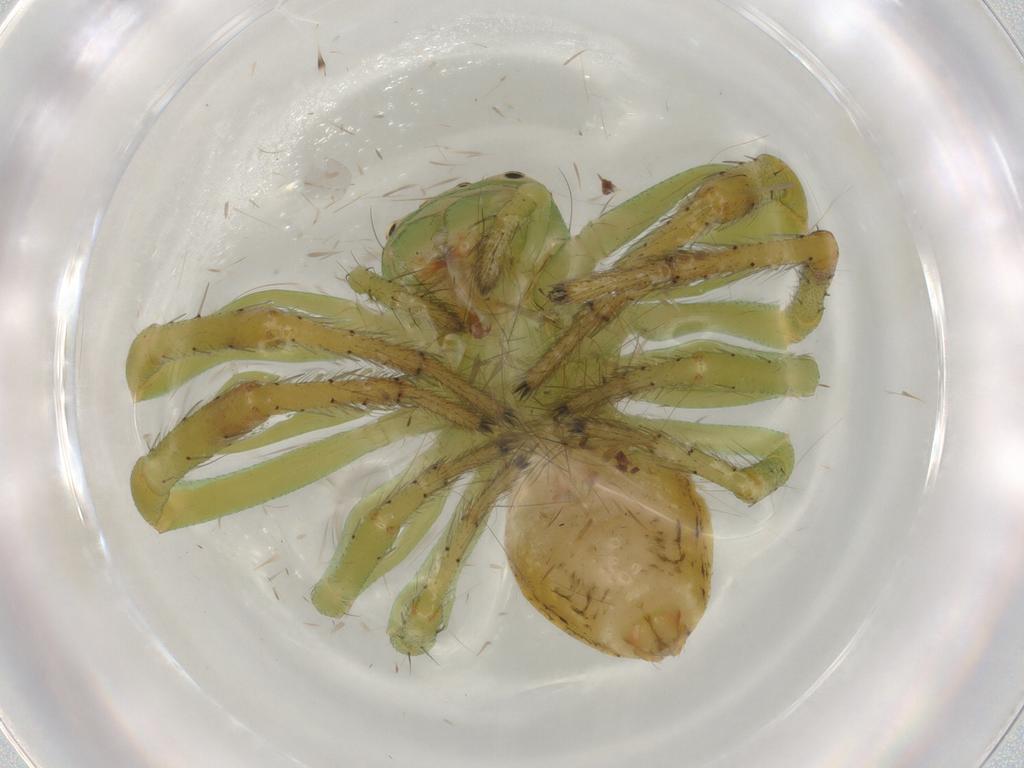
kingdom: Animalia
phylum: Arthropoda
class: Arachnida
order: Araneae
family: Thomisidae
